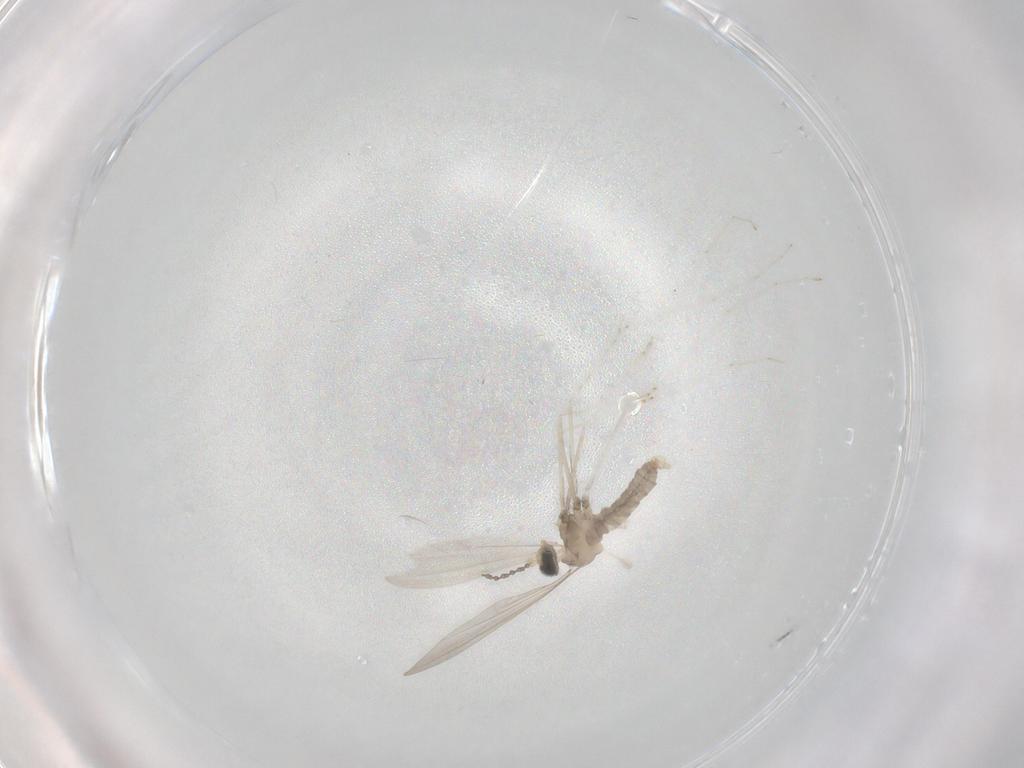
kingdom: Animalia
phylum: Arthropoda
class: Insecta
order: Diptera
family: Cecidomyiidae
